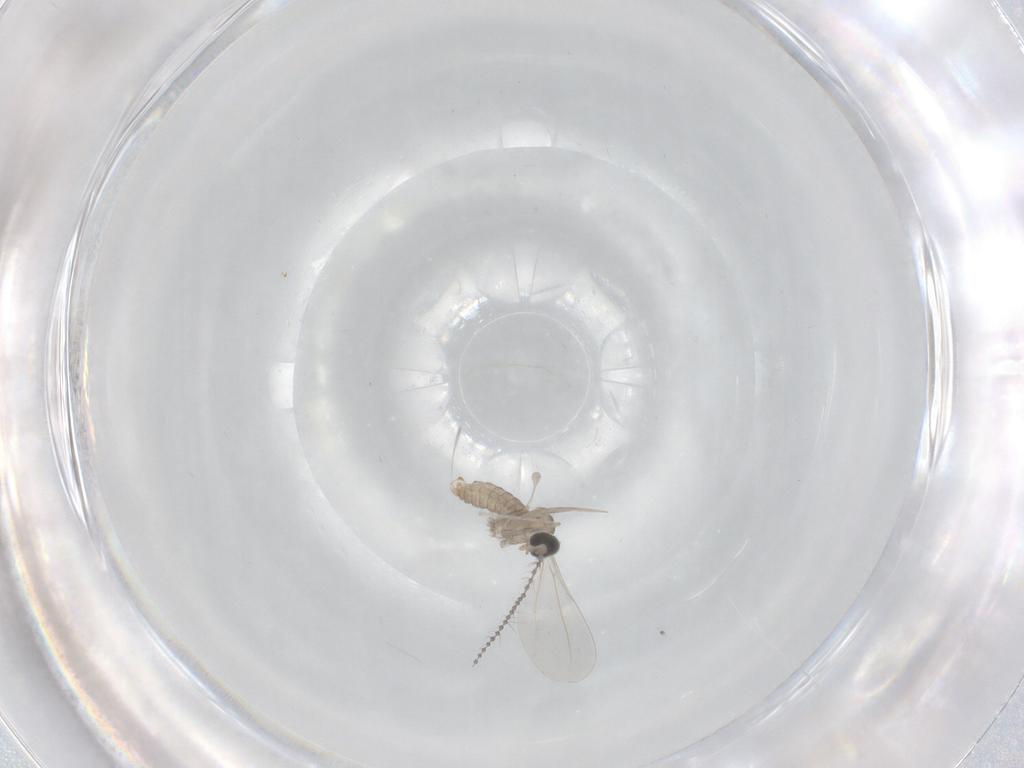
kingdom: Animalia
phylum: Arthropoda
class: Insecta
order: Diptera
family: Cecidomyiidae
